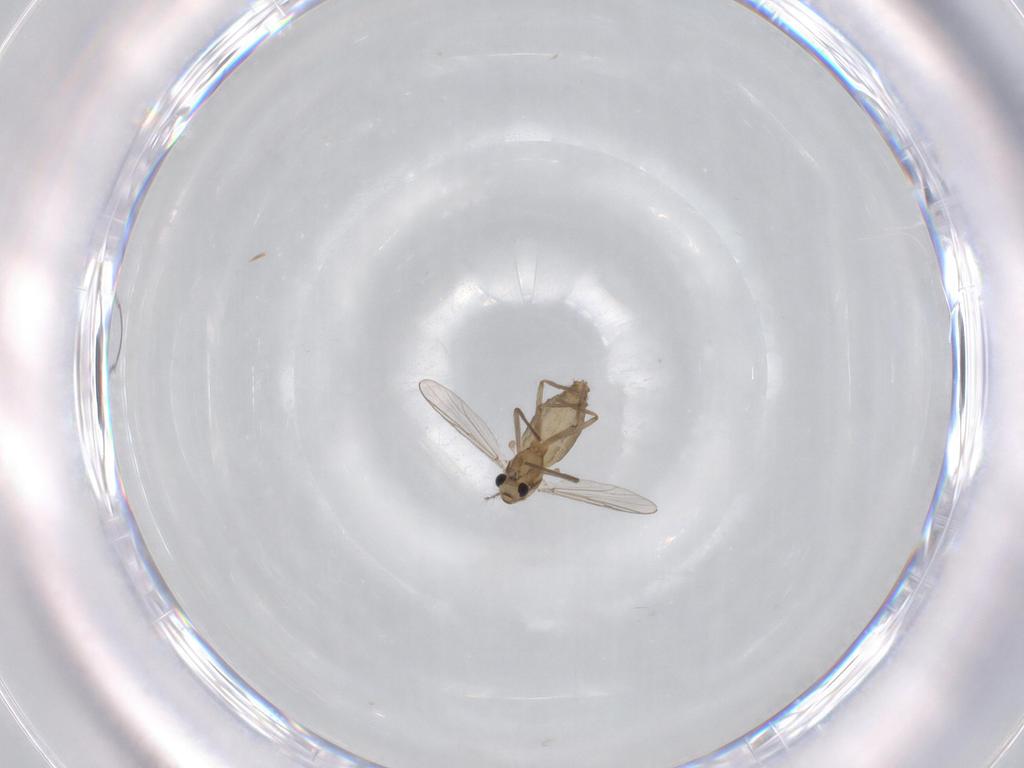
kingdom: Animalia
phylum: Arthropoda
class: Insecta
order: Diptera
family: Chironomidae
